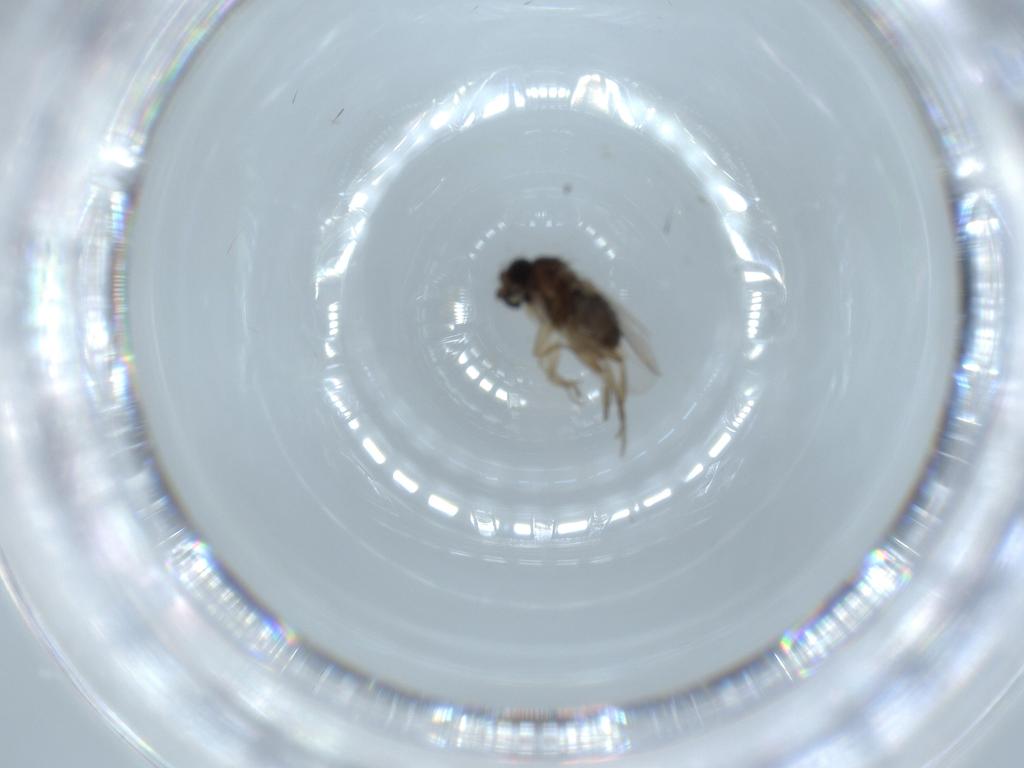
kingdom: Animalia
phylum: Arthropoda
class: Insecta
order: Diptera
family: Phoridae
